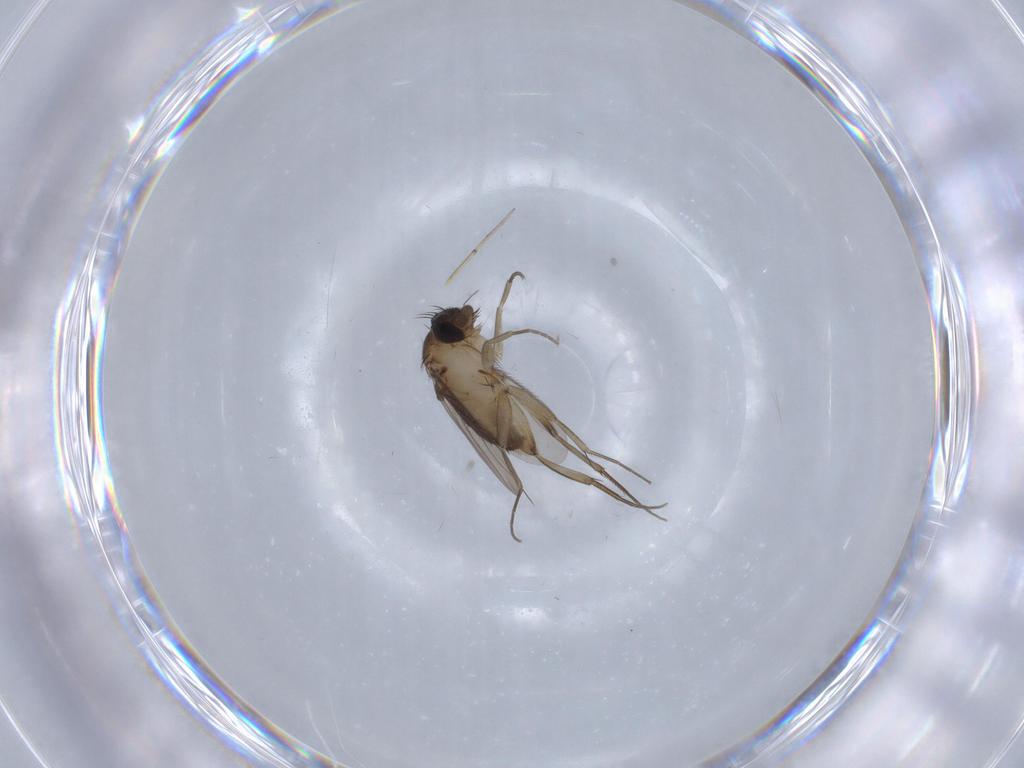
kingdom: Animalia
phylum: Arthropoda
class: Insecta
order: Diptera
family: Phoridae
